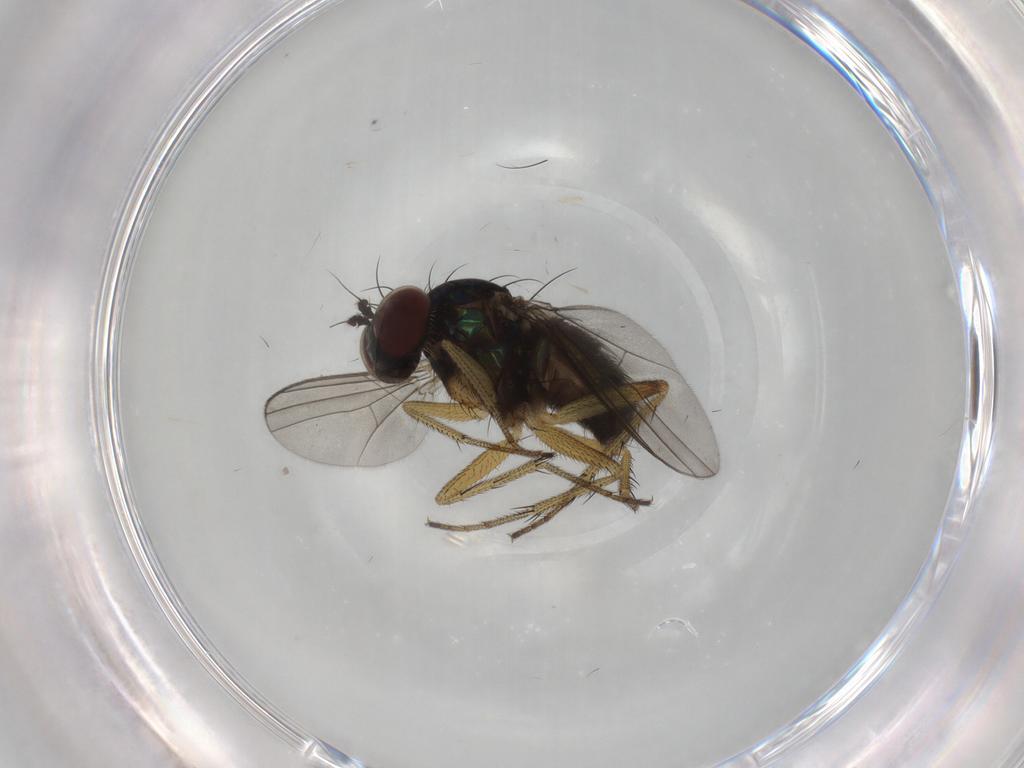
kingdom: Animalia
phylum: Arthropoda
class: Insecta
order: Diptera
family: Dolichopodidae
